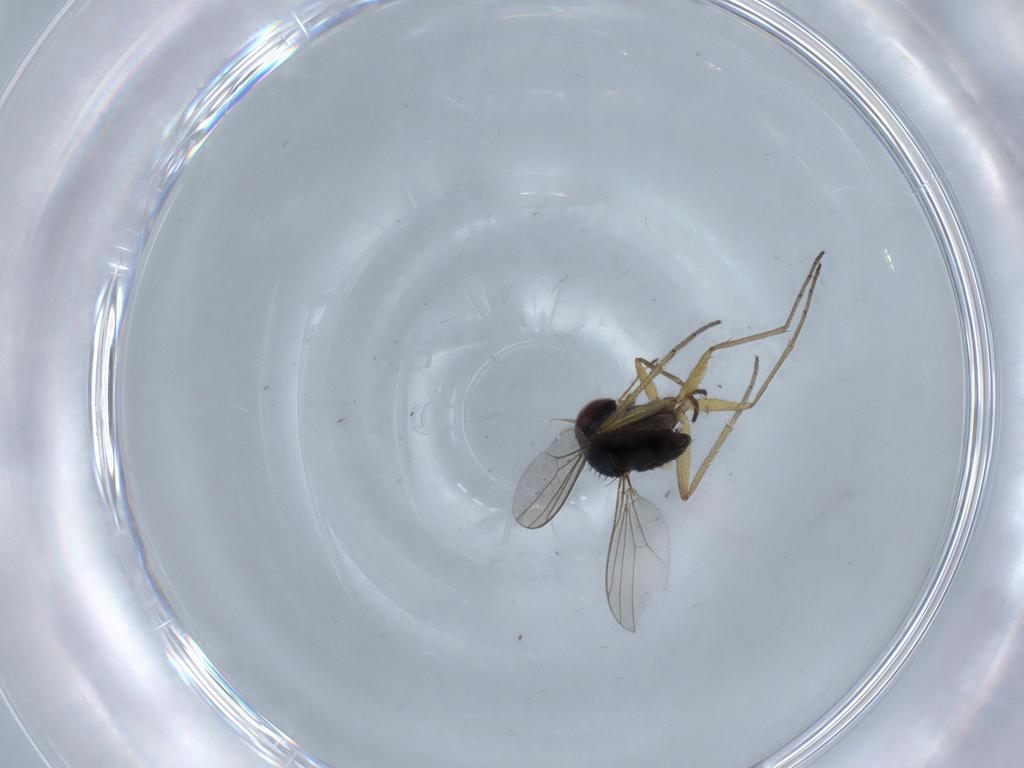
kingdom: Animalia
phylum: Arthropoda
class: Insecta
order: Diptera
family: Dolichopodidae
